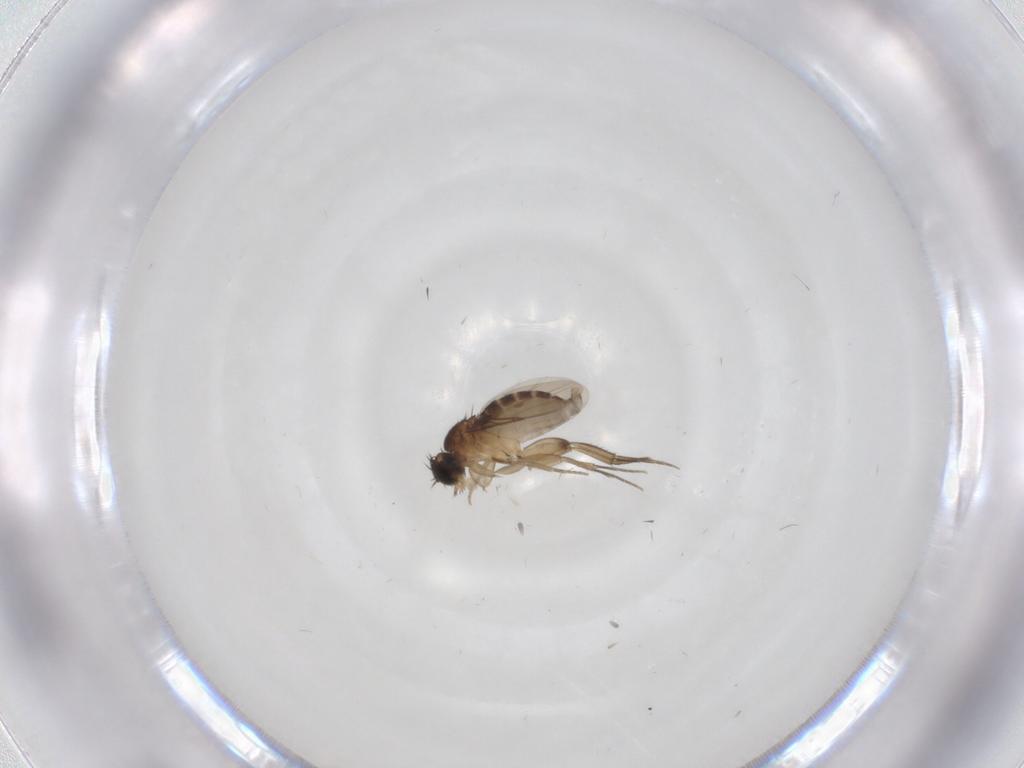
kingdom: Animalia
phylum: Arthropoda
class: Insecta
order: Diptera
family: Phoridae
